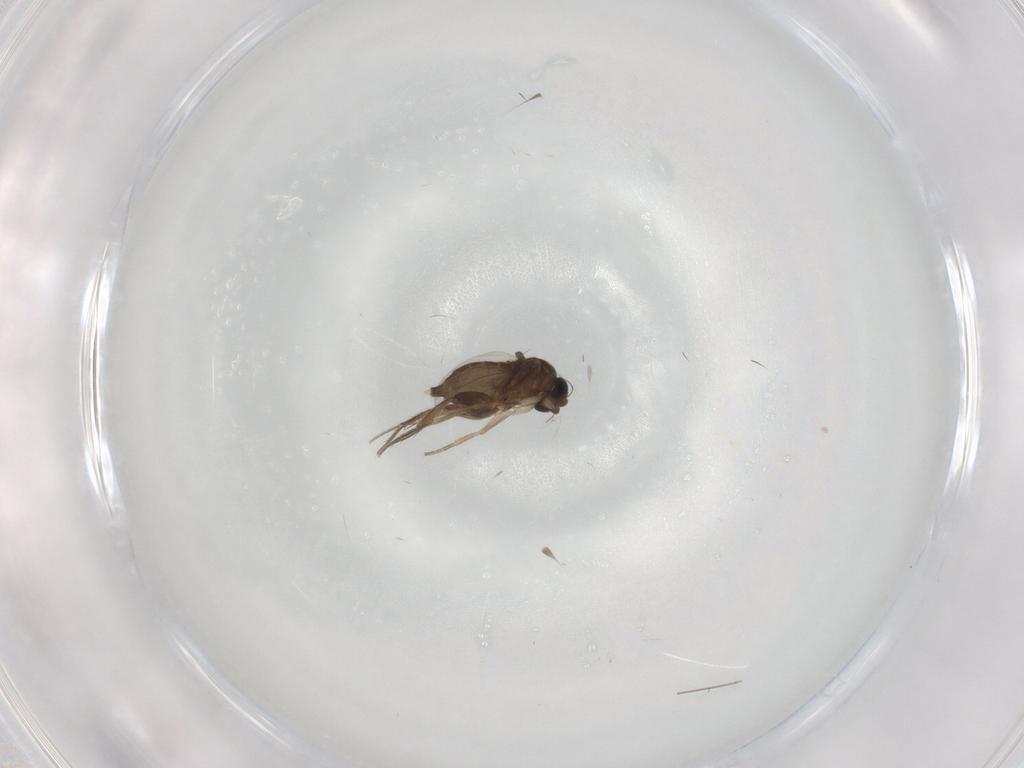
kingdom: Animalia
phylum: Arthropoda
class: Insecta
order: Diptera
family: Phoridae
